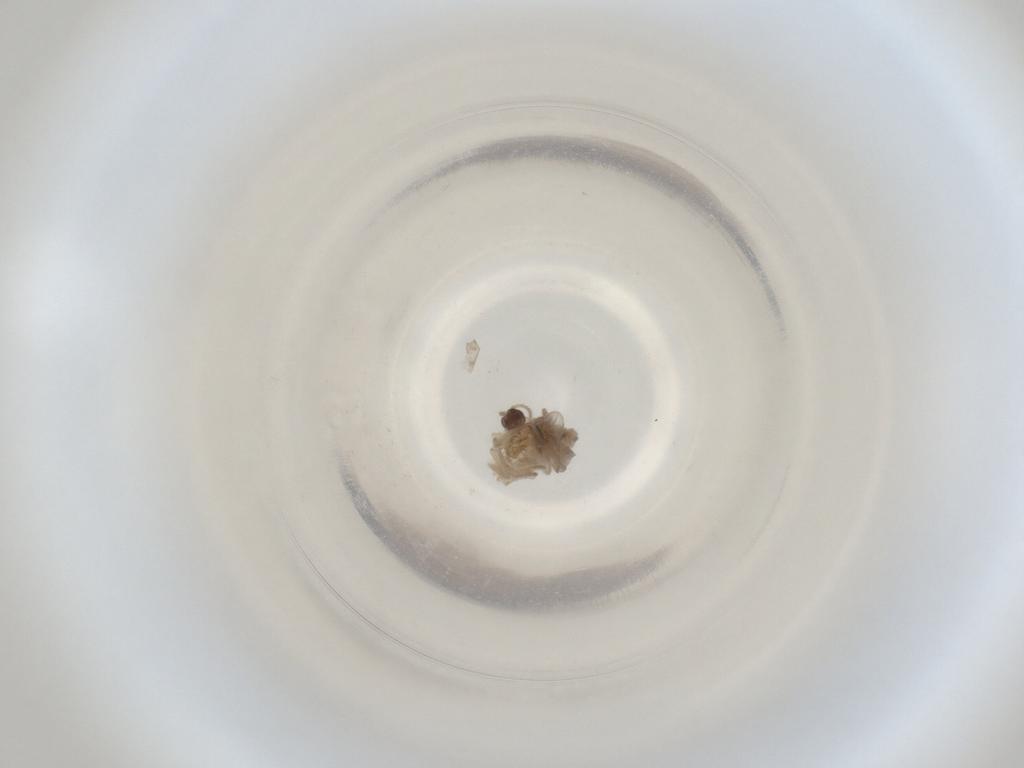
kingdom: Animalia
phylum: Arthropoda
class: Insecta
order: Diptera
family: Cecidomyiidae
